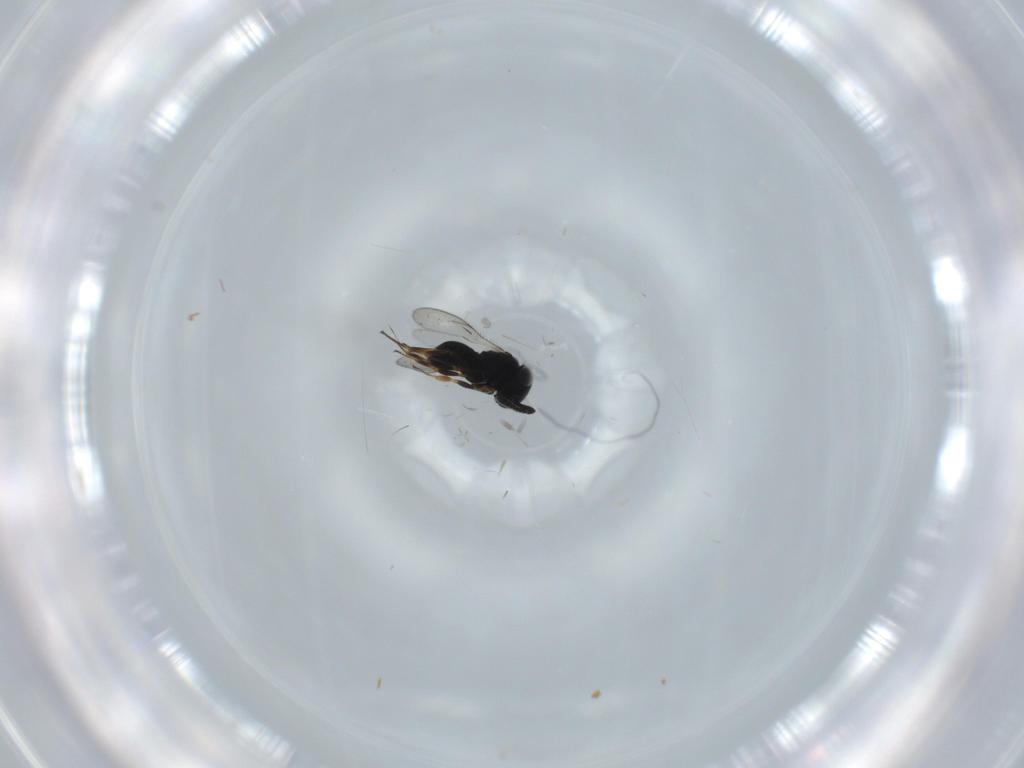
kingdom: Animalia
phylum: Arthropoda
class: Insecta
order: Hymenoptera
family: Scelionidae
